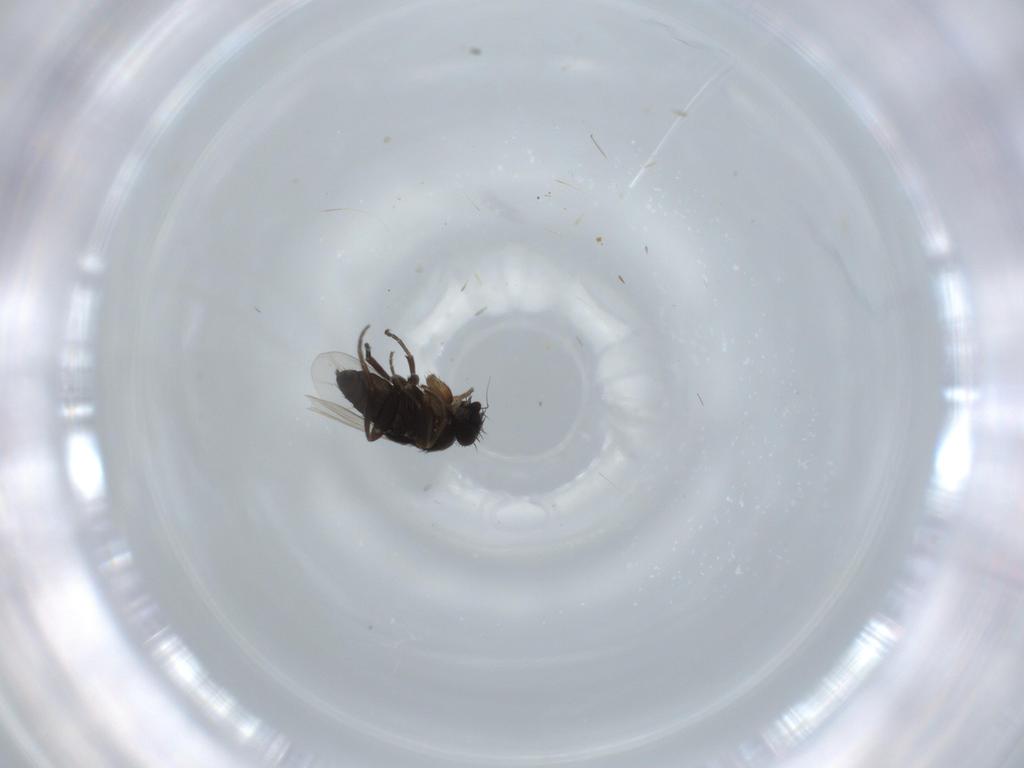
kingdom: Animalia
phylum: Arthropoda
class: Insecta
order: Diptera
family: Phoridae
